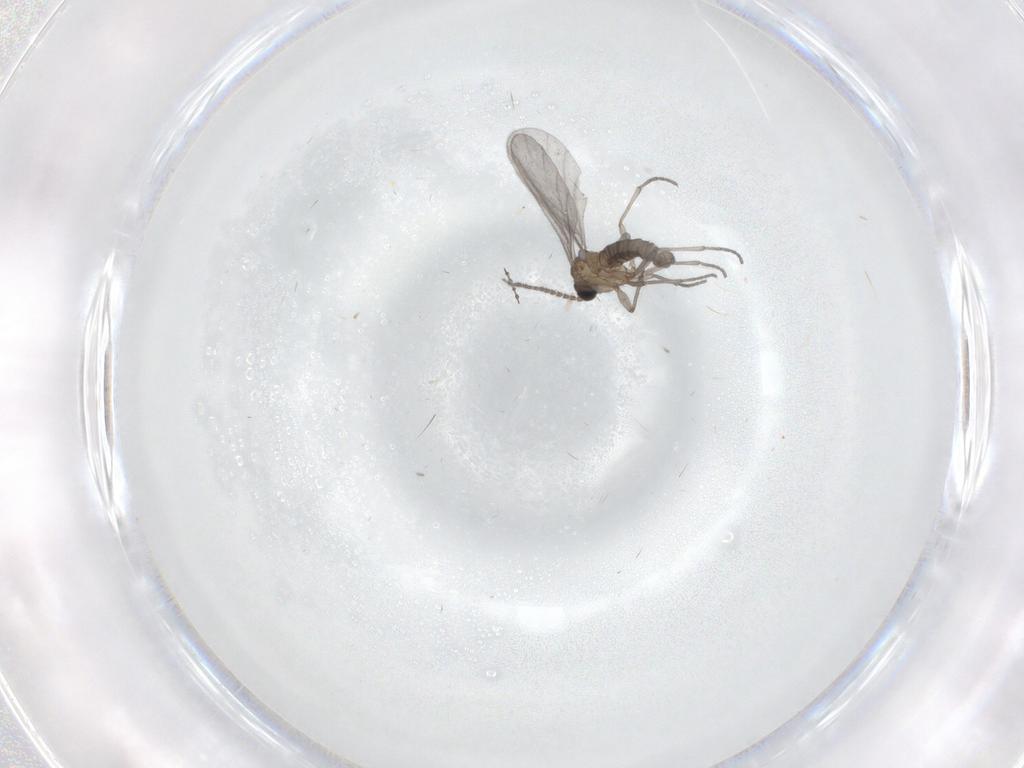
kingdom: Animalia
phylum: Arthropoda
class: Insecta
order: Diptera
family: Sciaridae
